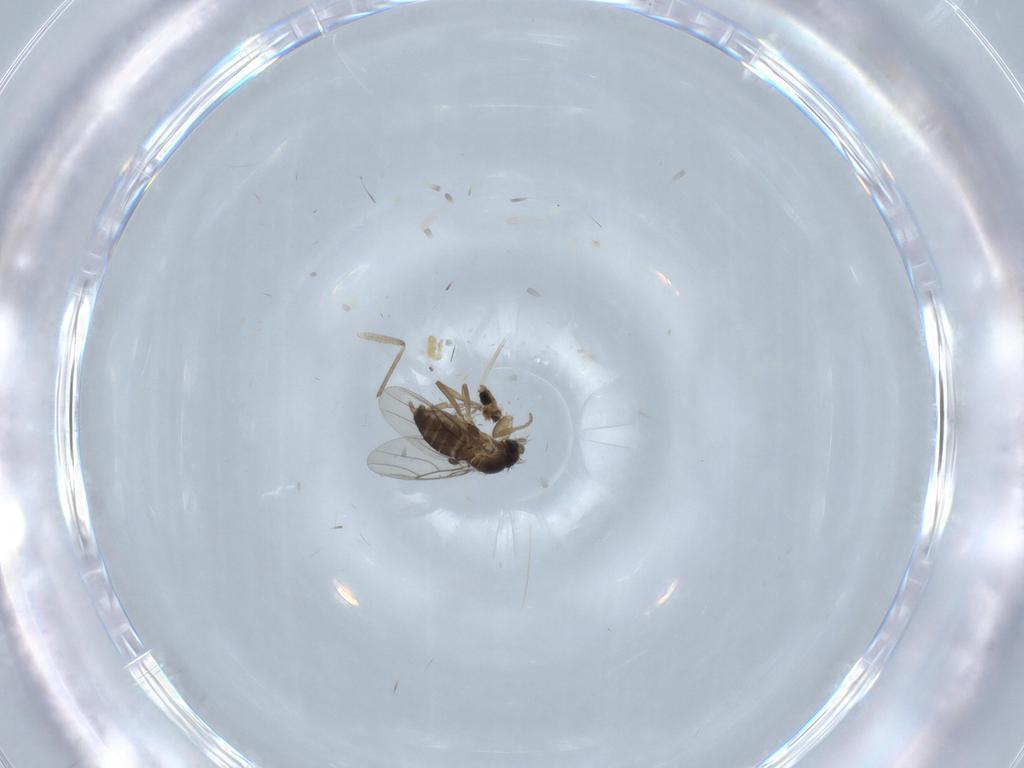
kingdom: Animalia
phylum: Arthropoda
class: Insecta
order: Diptera
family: Phoridae
